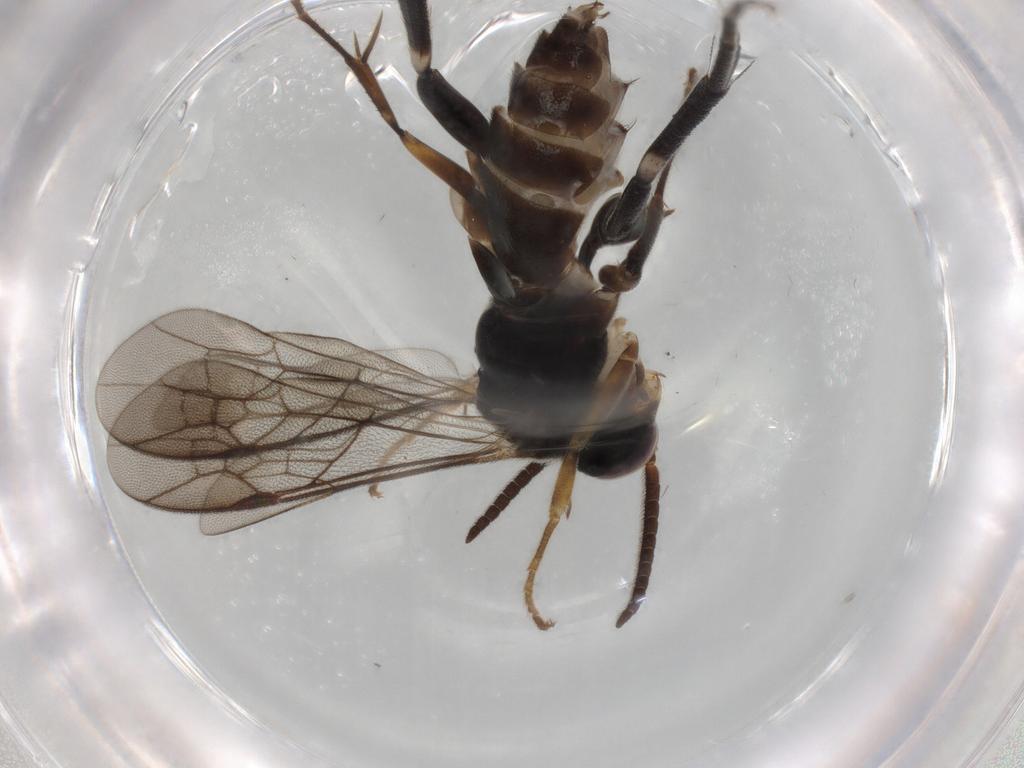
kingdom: Animalia
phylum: Arthropoda
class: Insecta
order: Hymenoptera
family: Pompilidae
